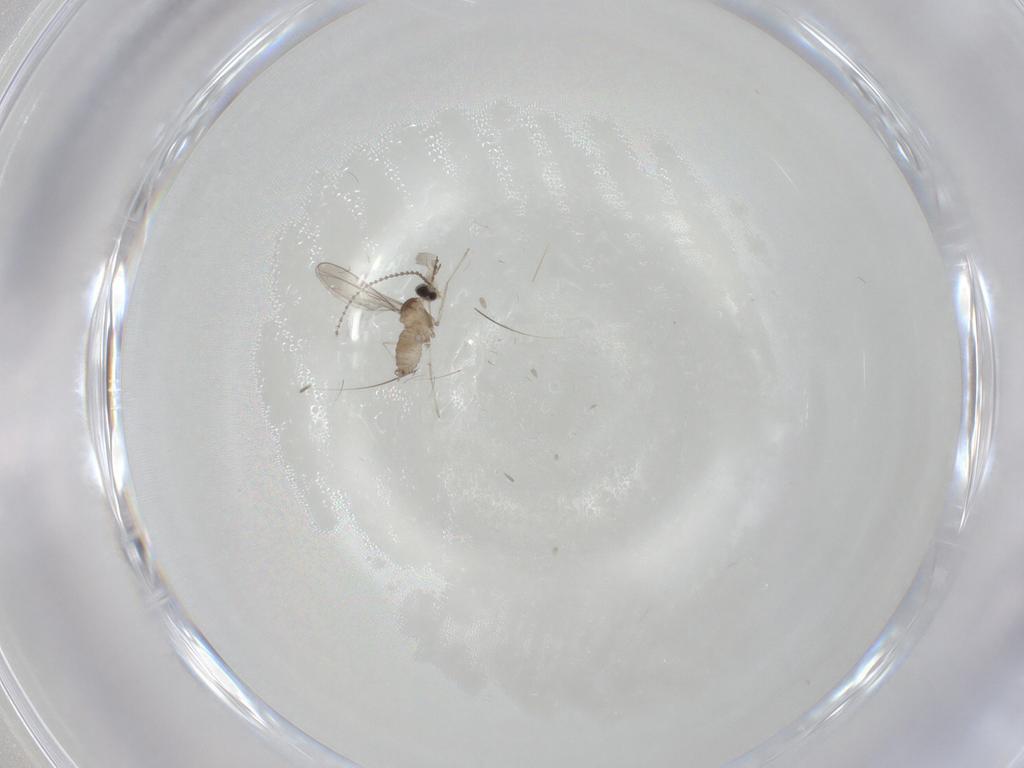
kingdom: Animalia
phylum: Arthropoda
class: Insecta
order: Diptera
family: Cecidomyiidae
